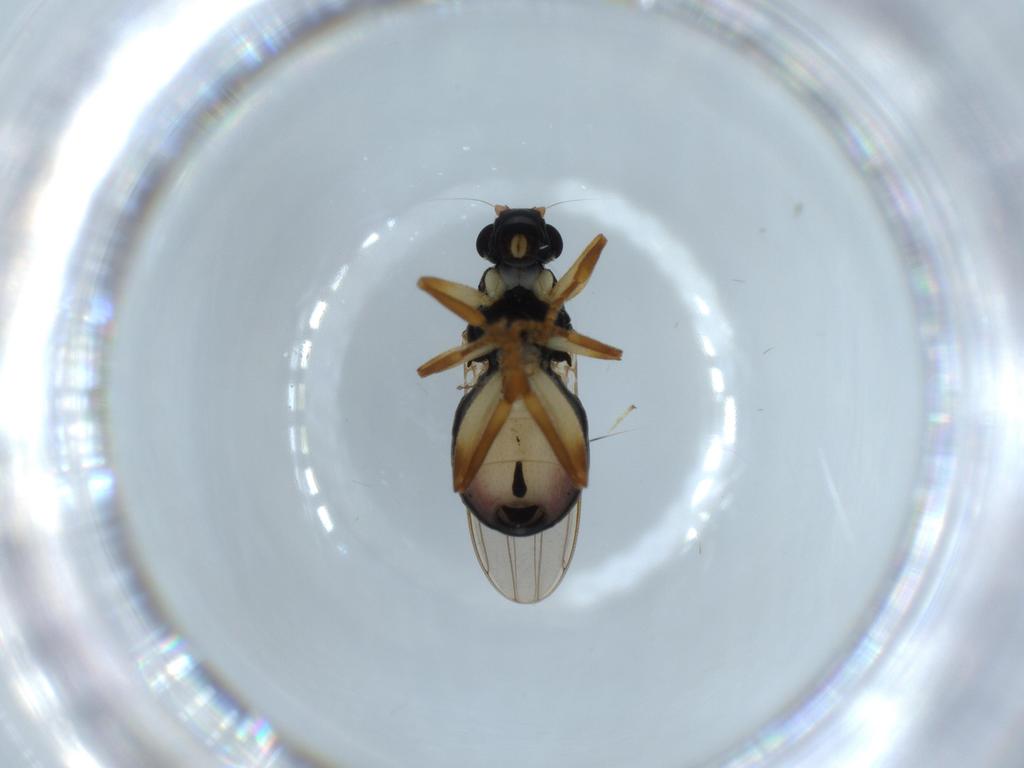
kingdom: Animalia
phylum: Arthropoda
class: Insecta
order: Diptera
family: Cecidomyiidae
